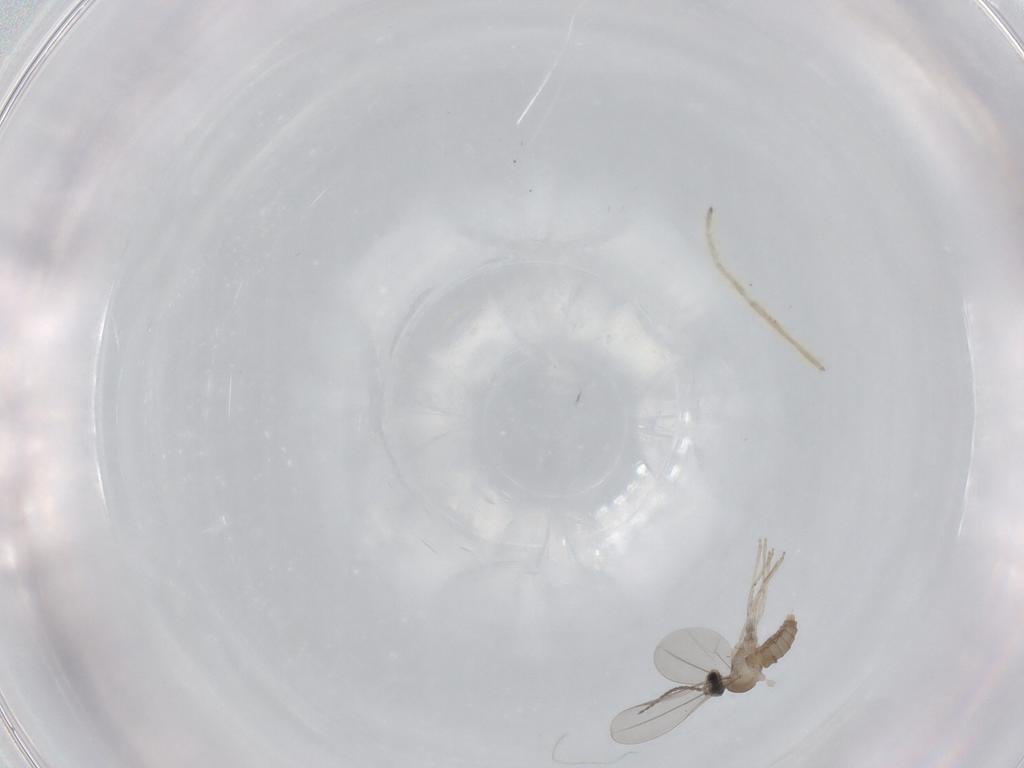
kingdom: Animalia
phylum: Arthropoda
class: Insecta
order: Diptera
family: Cecidomyiidae
